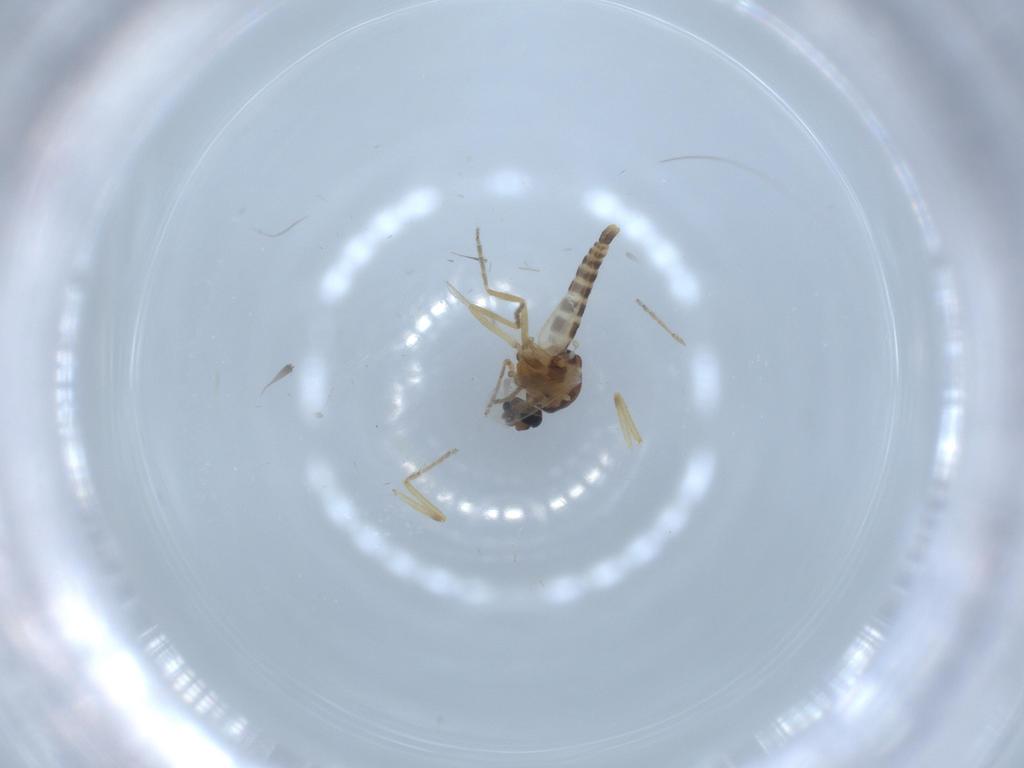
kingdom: Animalia
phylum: Arthropoda
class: Insecta
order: Diptera
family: Ceratopogonidae
